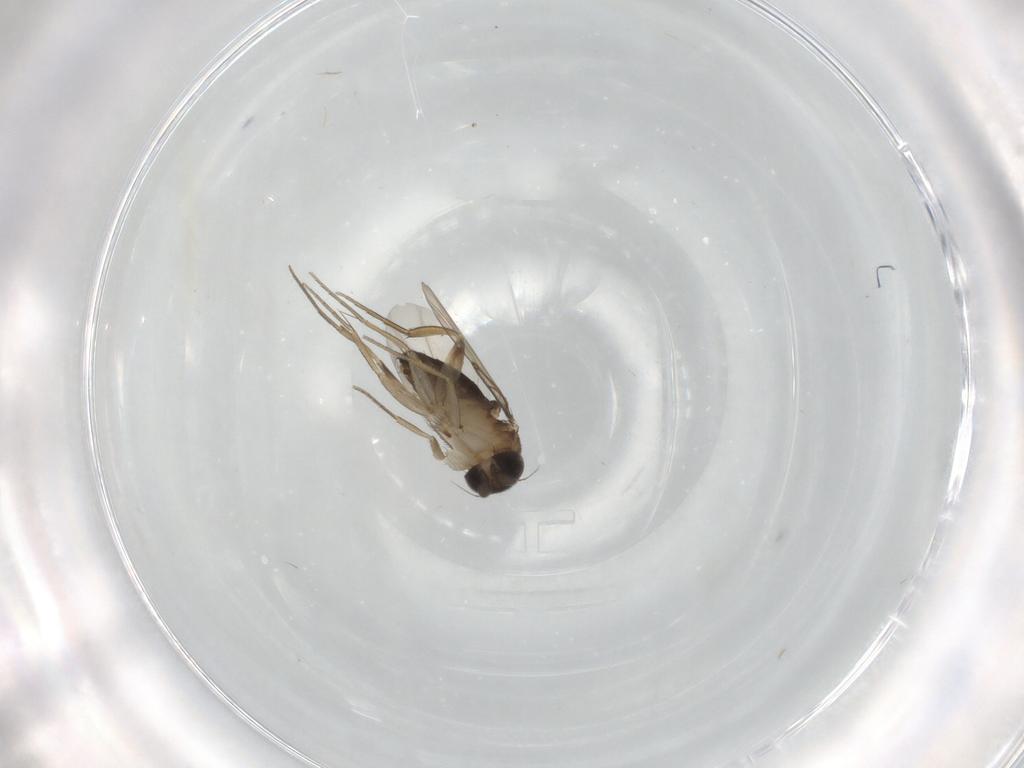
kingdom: Animalia
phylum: Arthropoda
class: Insecta
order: Diptera
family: Phoridae
